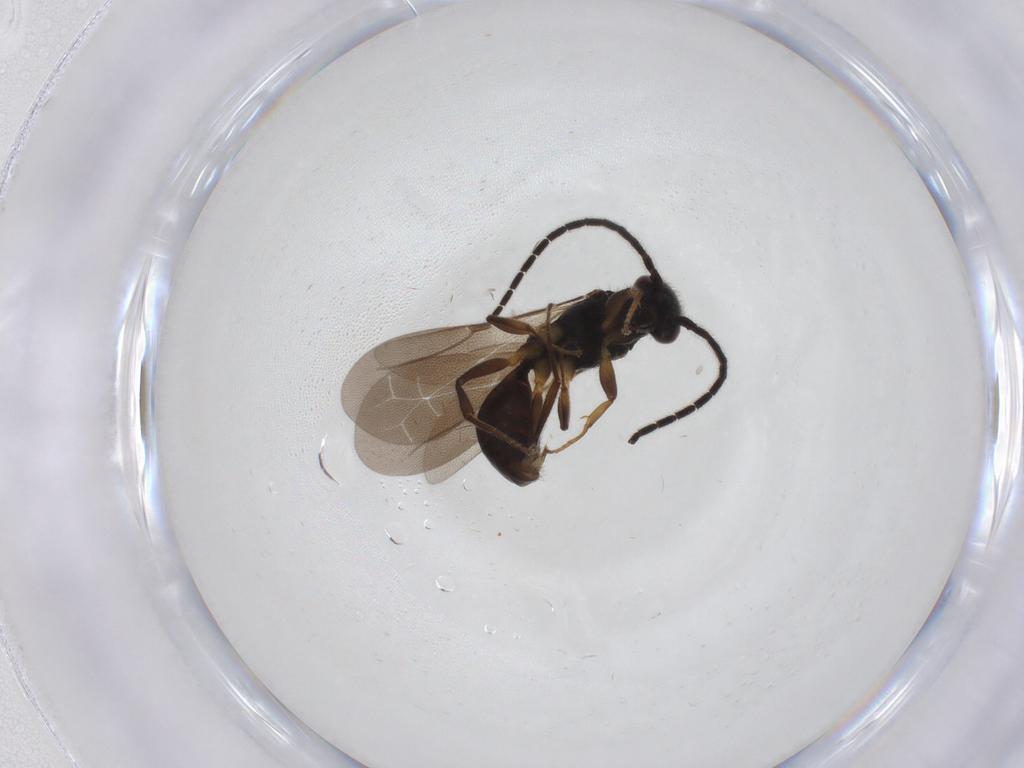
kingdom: Animalia
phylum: Arthropoda
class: Insecta
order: Hymenoptera
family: Bethylidae
